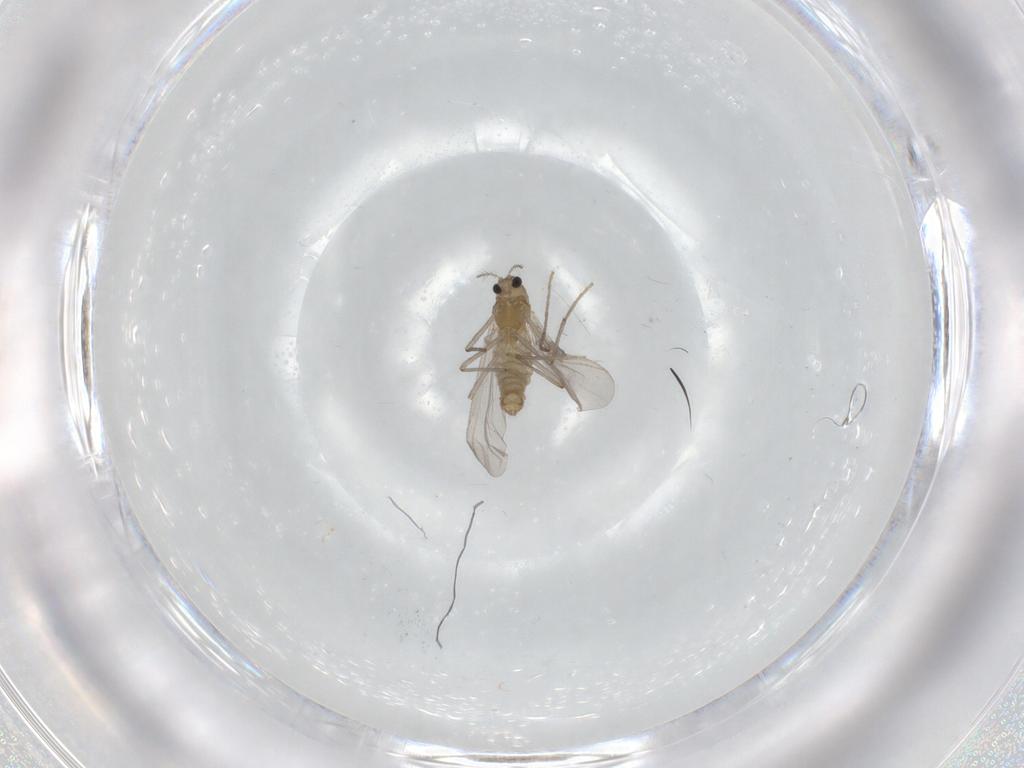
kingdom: Animalia
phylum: Arthropoda
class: Insecta
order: Diptera
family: Chironomidae
